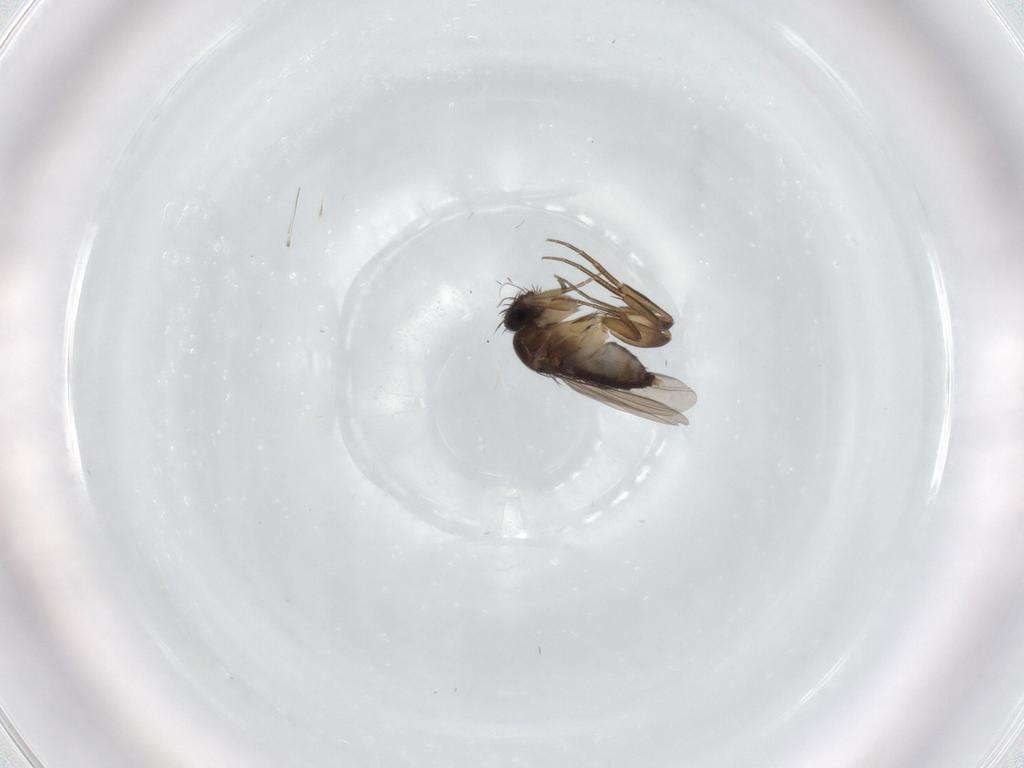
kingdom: Animalia
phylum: Arthropoda
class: Insecta
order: Diptera
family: Phoridae
